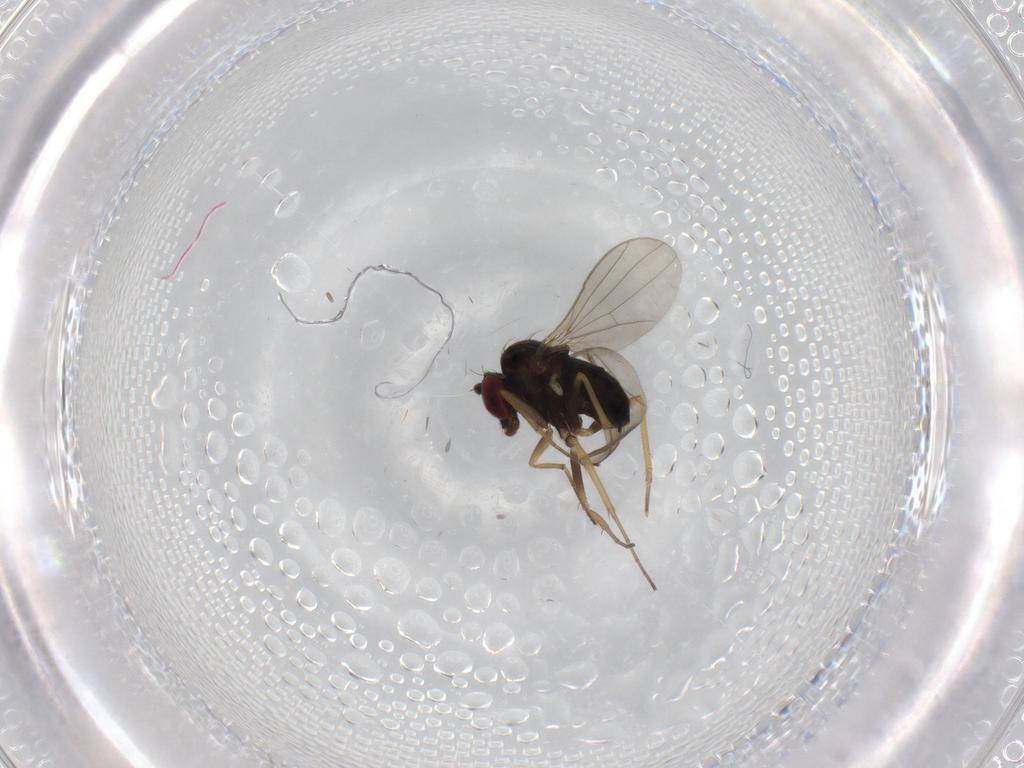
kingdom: Animalia
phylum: Arthropoda
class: Insecta
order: Diptera
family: Dolichopodidae
